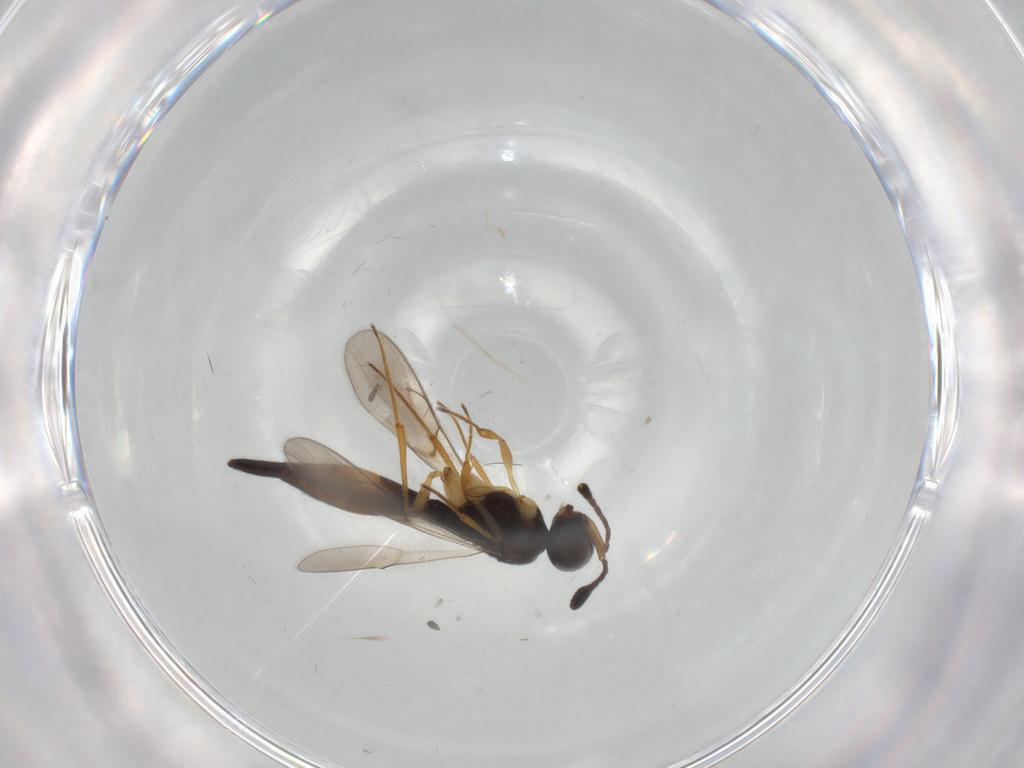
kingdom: Animalia
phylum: Arthropoda
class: Insecta
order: Hymenoptera
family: Scelionidae
